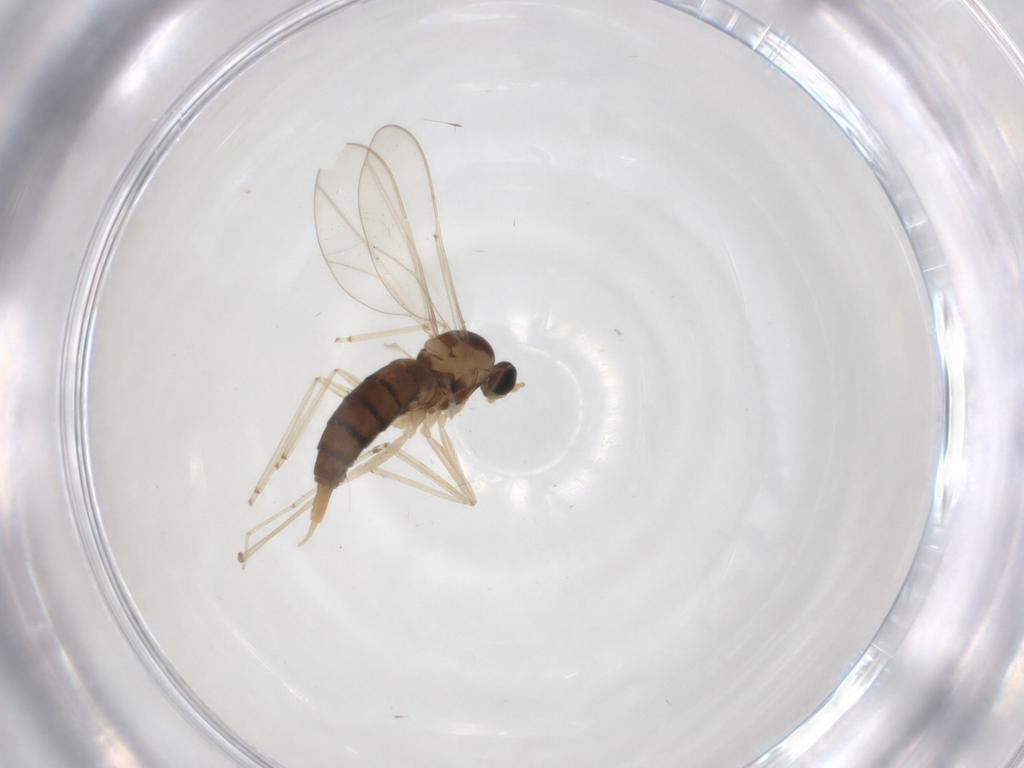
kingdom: Animalia
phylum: Arthropoda
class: Insecta
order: Diptera
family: Cecidomyiidae
